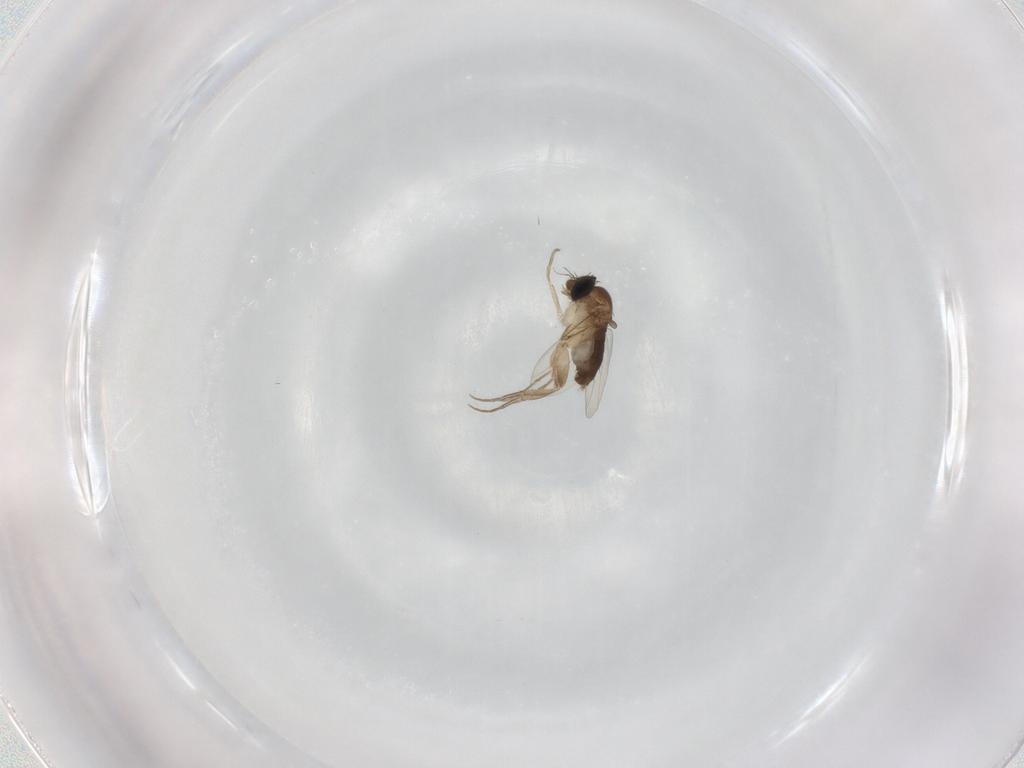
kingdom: Animalia
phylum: Arthropoda
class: Insecta
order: Diptera
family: Phoridae
